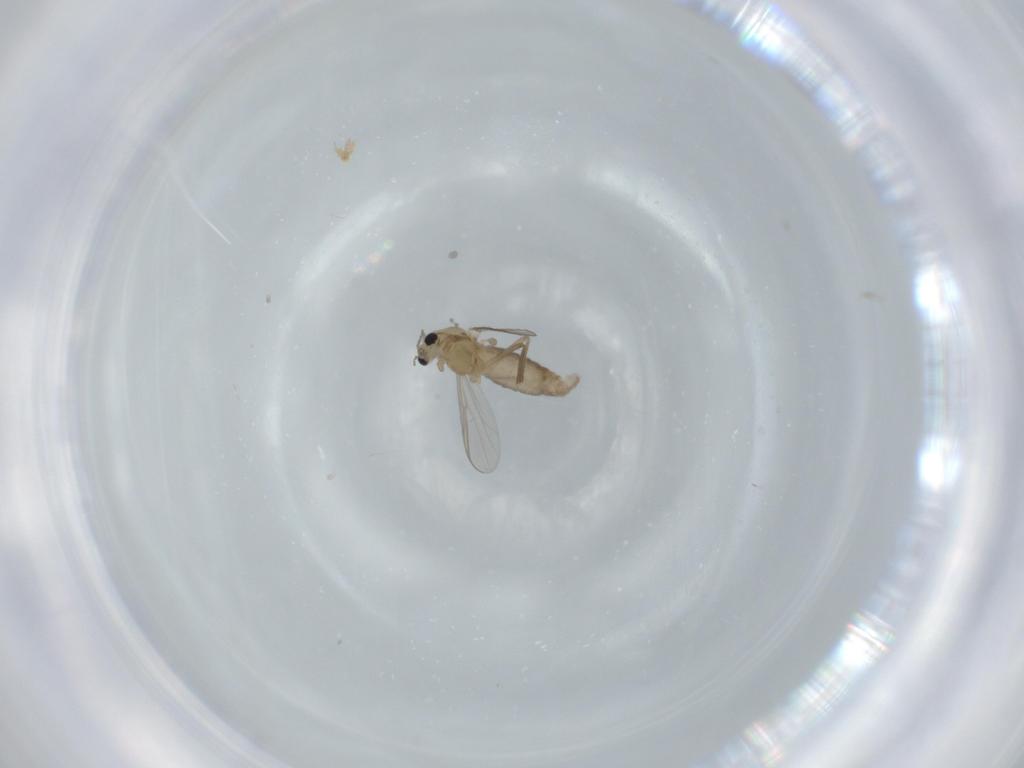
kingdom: Animalia
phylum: Arthropoda
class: Insecta
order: Diptera
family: Chironomidae
